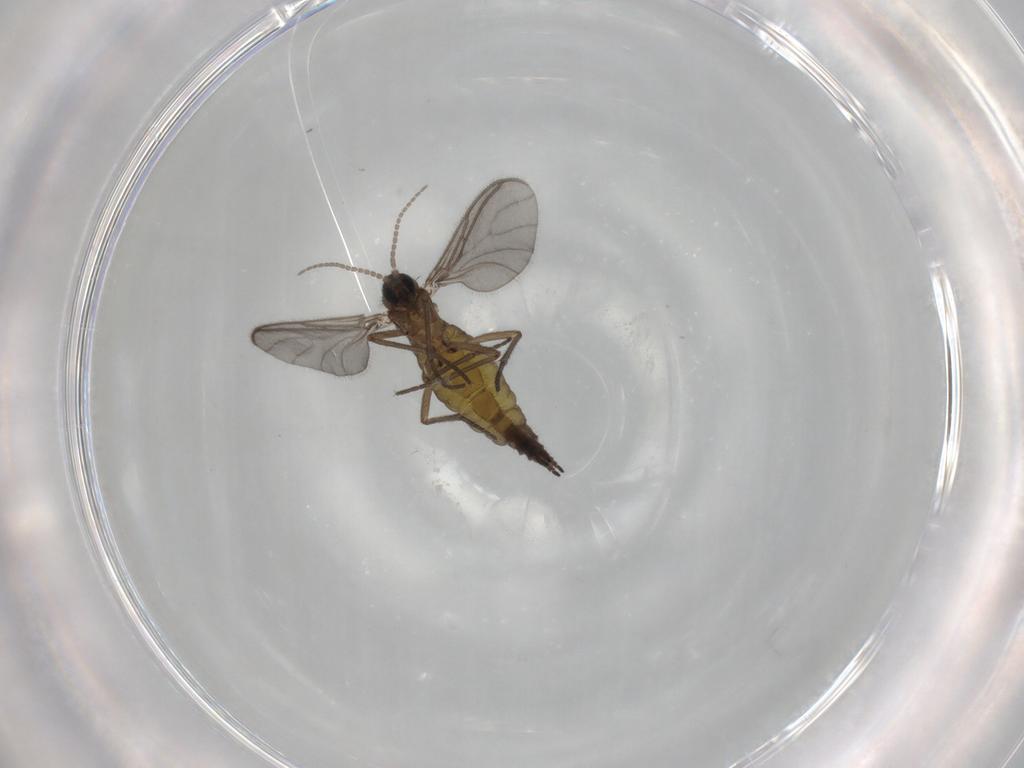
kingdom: Animalia
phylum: Arthropoda
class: Insecta
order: Diptera
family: Sciaridae
